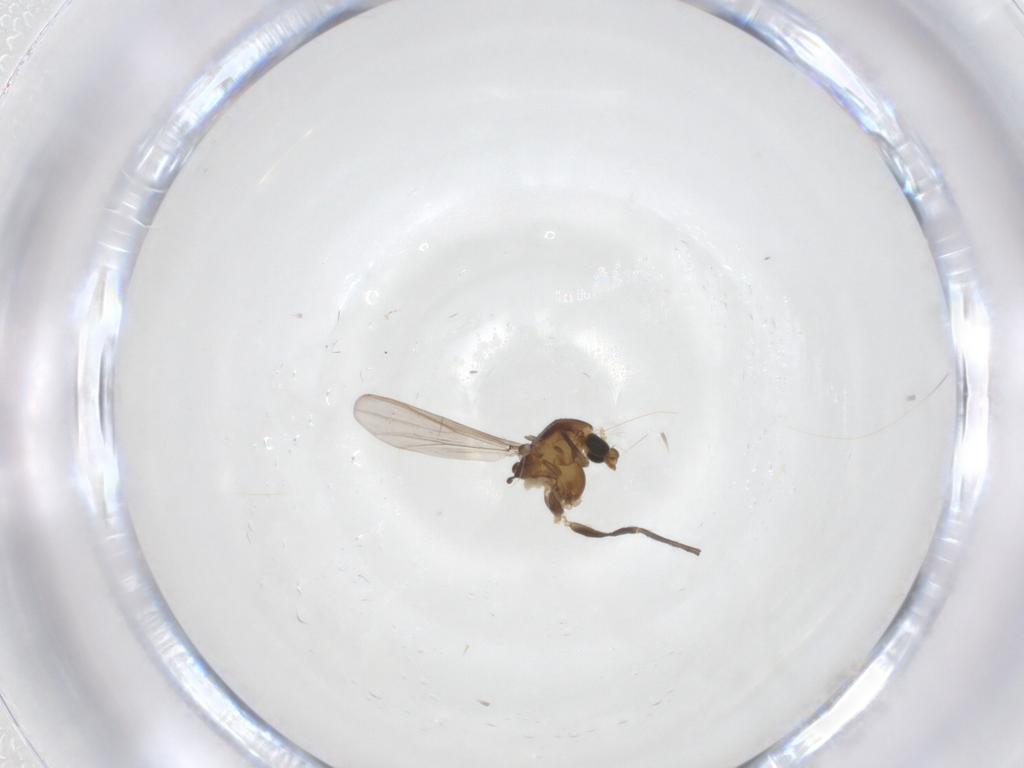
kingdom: Animalia
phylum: Arthropoda
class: Insecta
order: Diptera
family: Chironomidae
